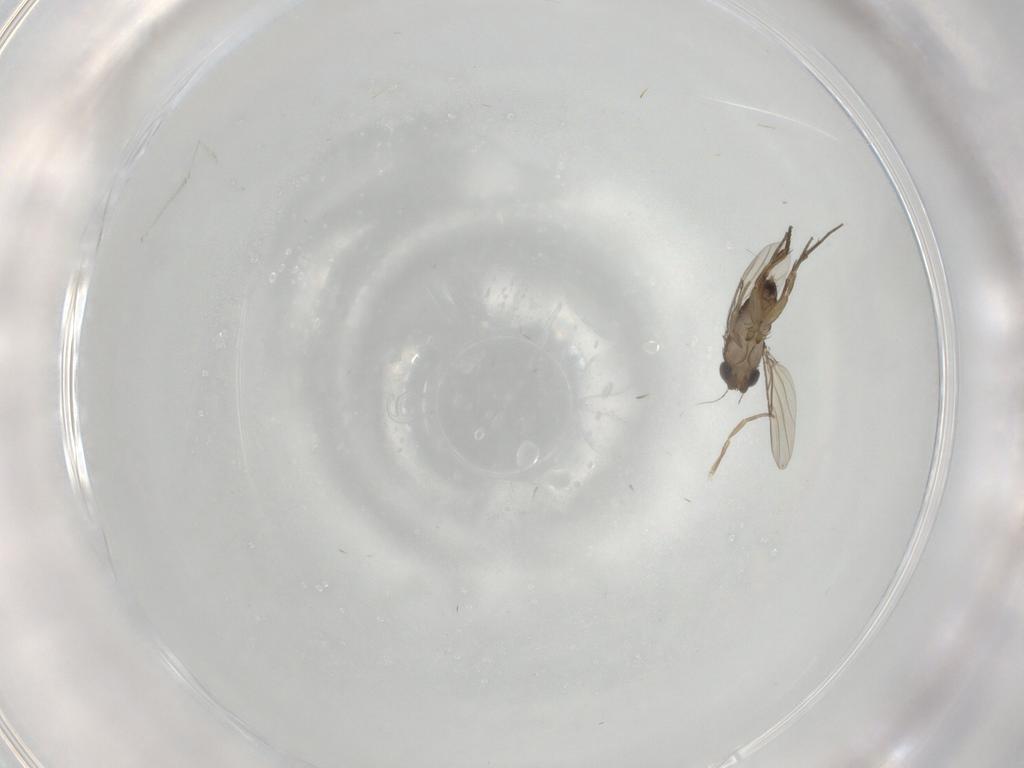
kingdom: Animalia
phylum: Arthropoda
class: Insecta
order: Diptera
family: Phoridae
